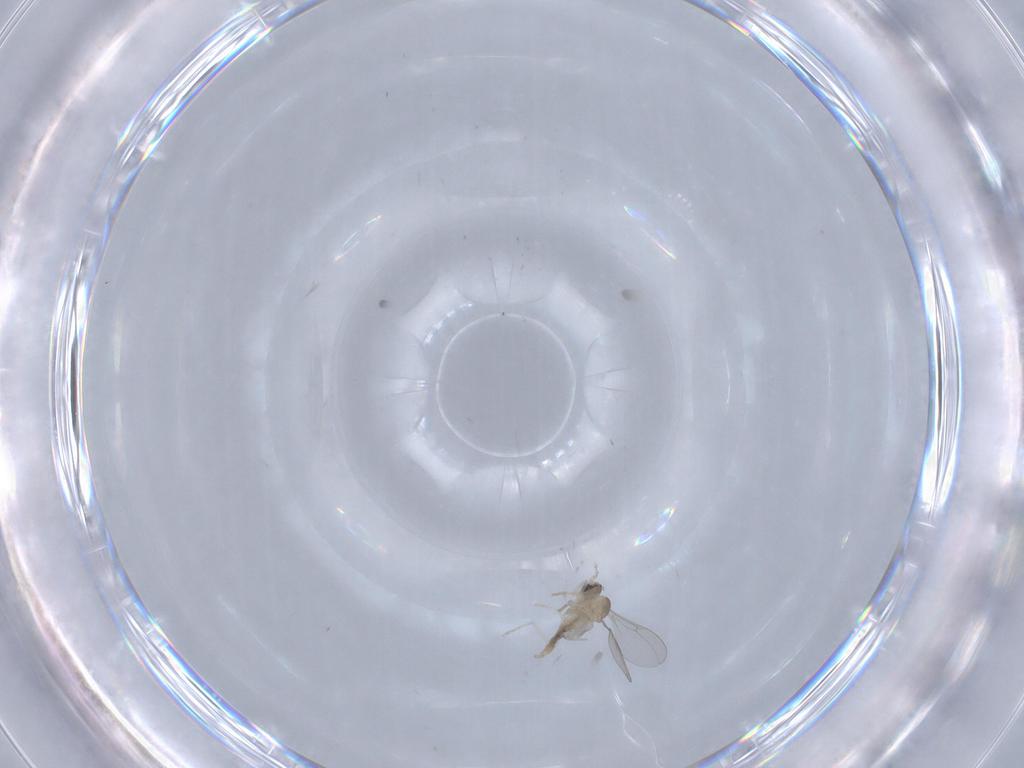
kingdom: Animalia
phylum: Arthropoda
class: Insecta
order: Diptera
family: Cecidomyiidae
